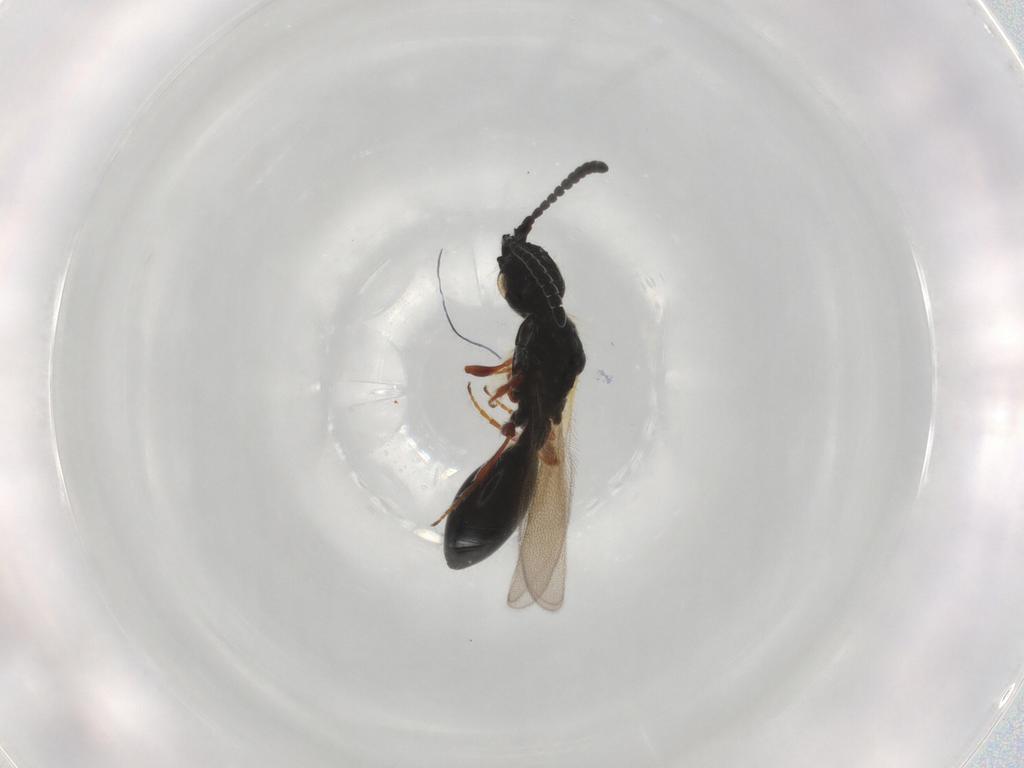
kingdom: Animalia
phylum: Arthropoda
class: Insecta
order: Hymenoptera
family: Diapriidae
